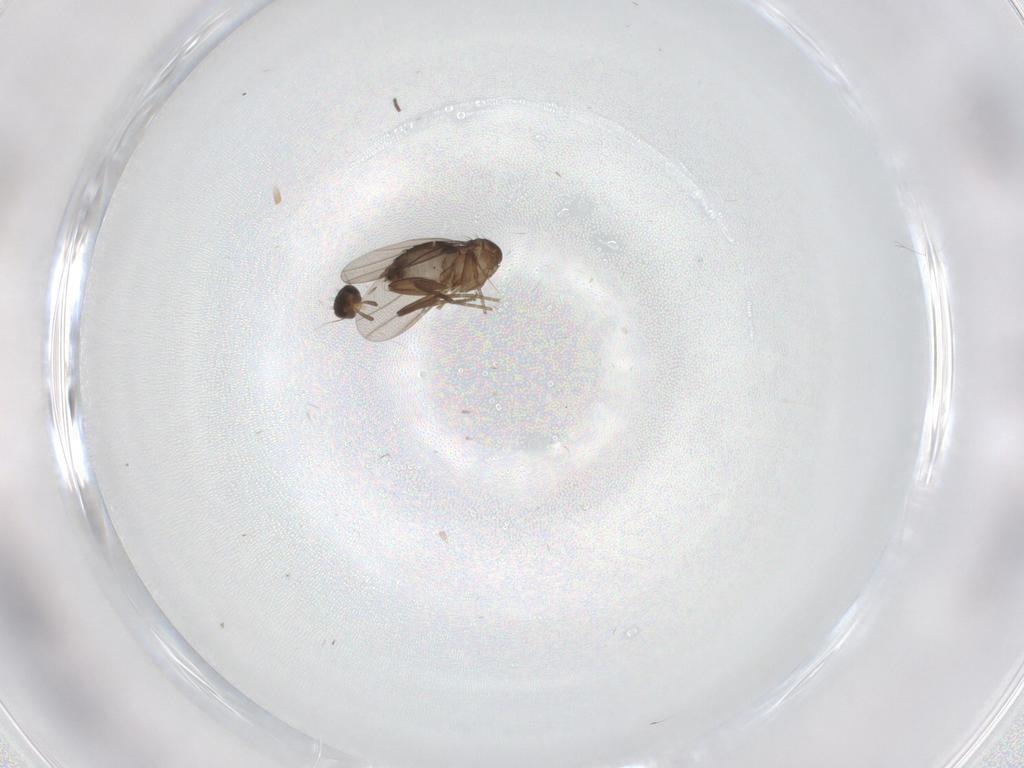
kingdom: Animalia
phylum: Arthropoda
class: Insecta
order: Diptera
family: Sciaridae
